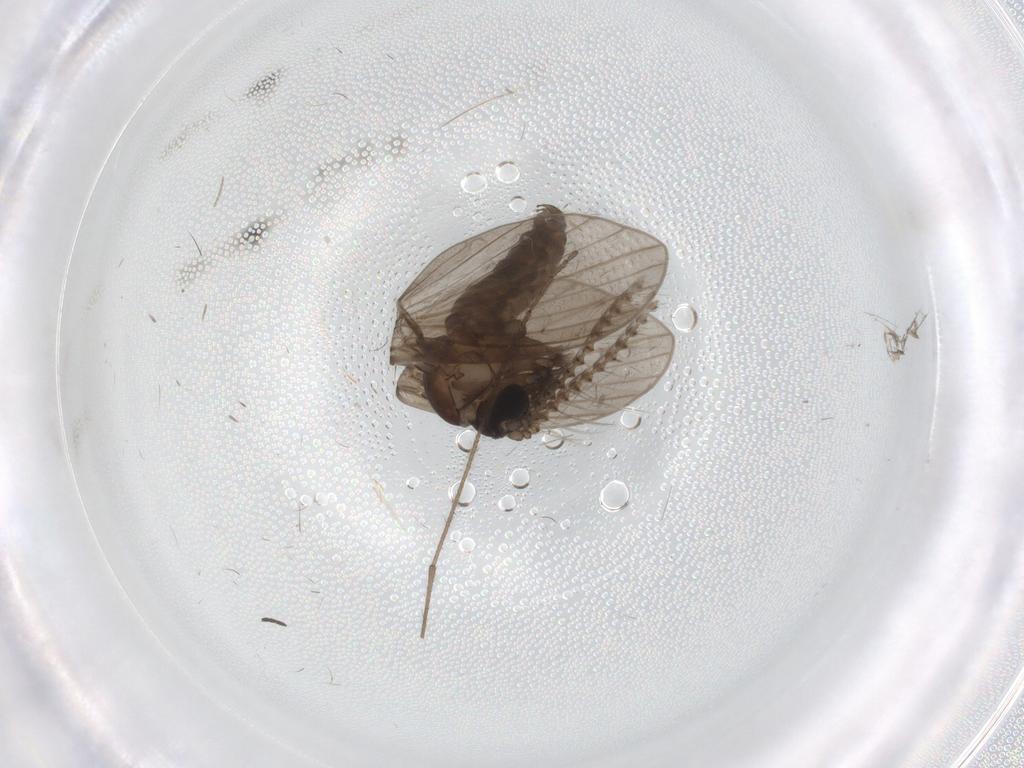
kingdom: Animalia
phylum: Arthropoda
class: Insecta
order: Diptera
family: Psychodidae
